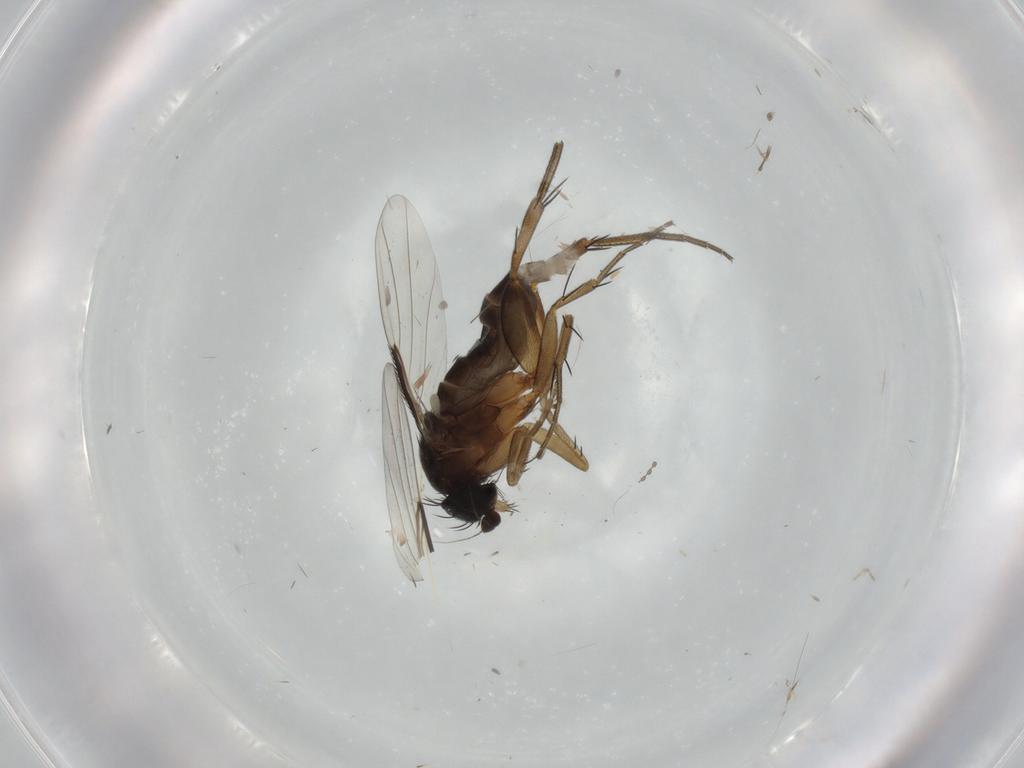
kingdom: Animalia
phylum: Arthropoda
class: Insecta
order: Diptera
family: Phoridae
